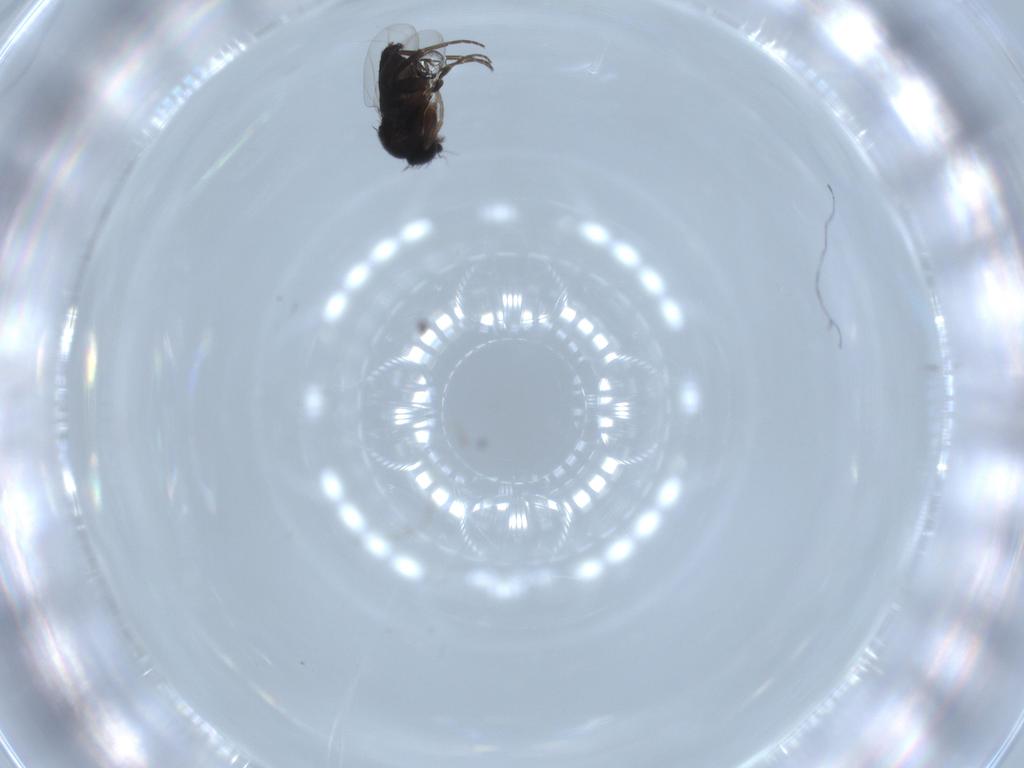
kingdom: Animalia
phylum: Arthropoda
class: Insecta
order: Diptera
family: Cecidomyiidae
